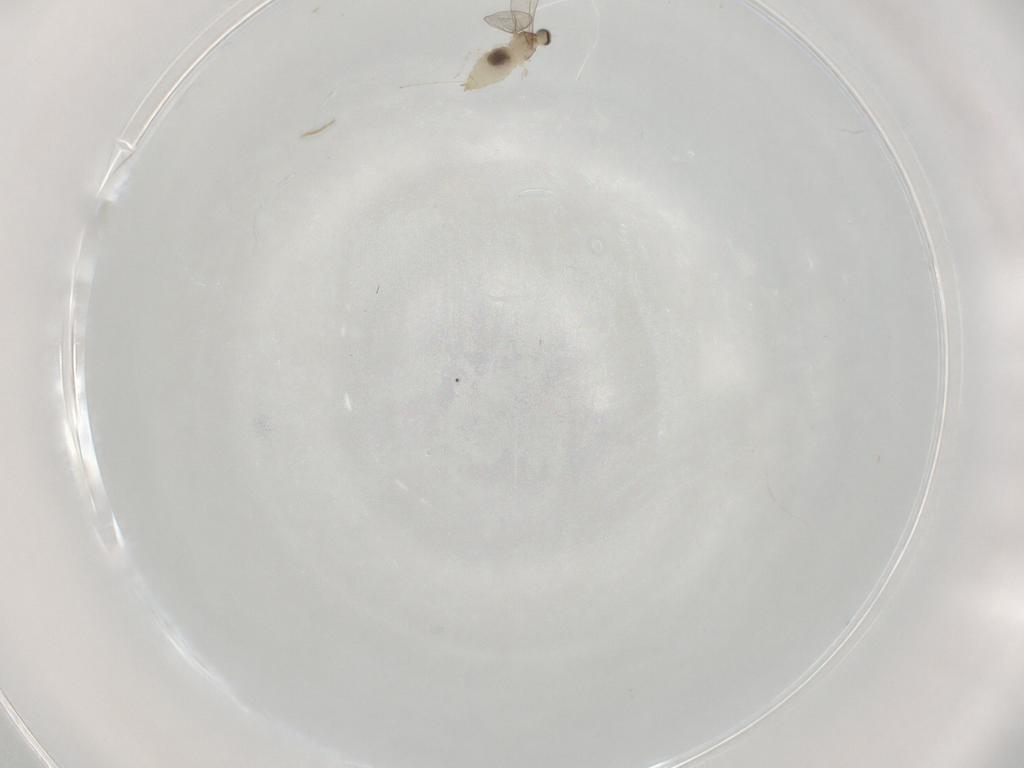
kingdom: Animalia
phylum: Arthropoda
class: Insecta
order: Diptera
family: Cecidomyiidae
